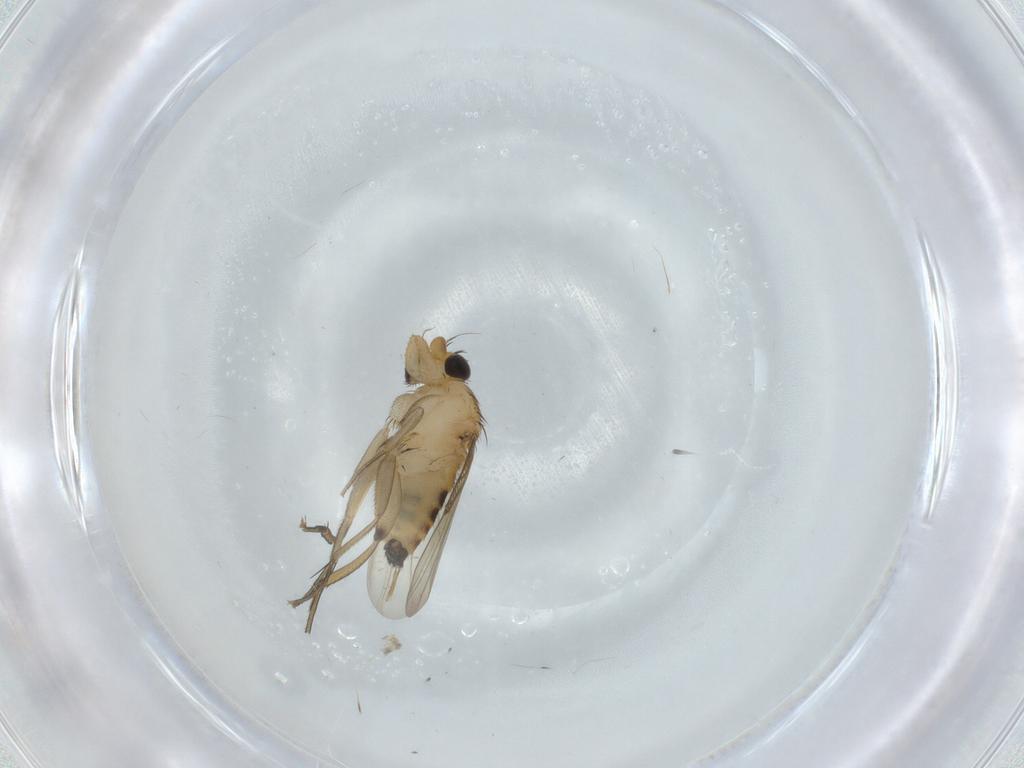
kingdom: Animalia
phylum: Arthropoda
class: Insecta
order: Diptera
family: Phoridae
